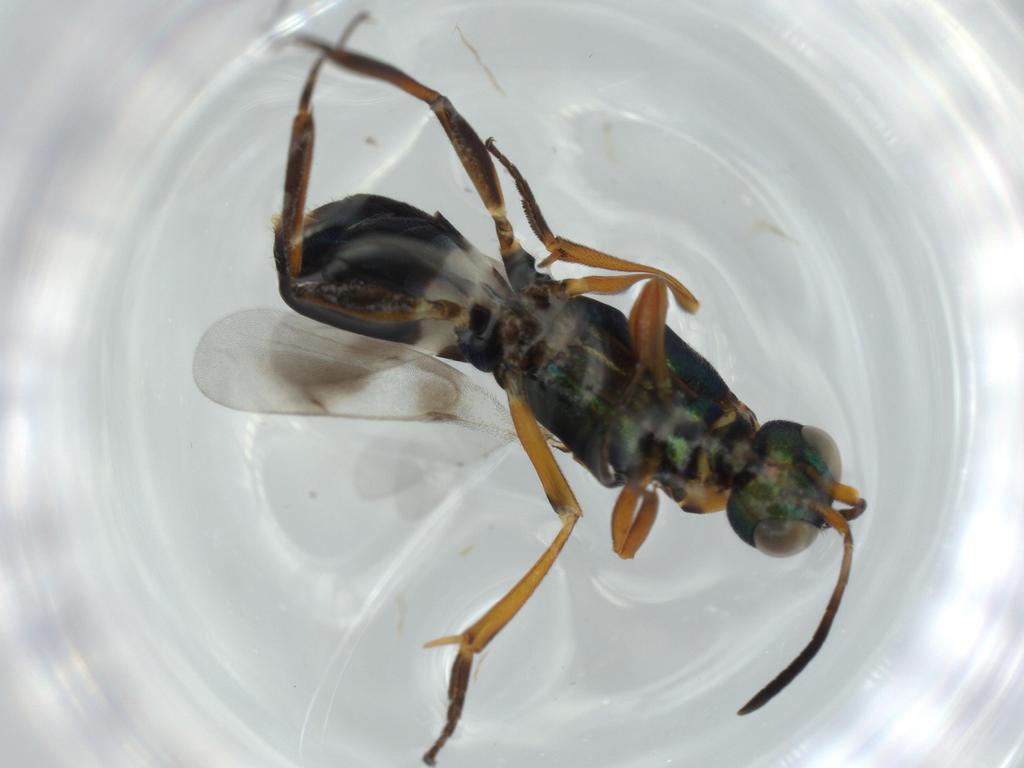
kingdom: Animalia
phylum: Arthropoda
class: Insecta
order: Hymenoptera
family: Eupelmidae
